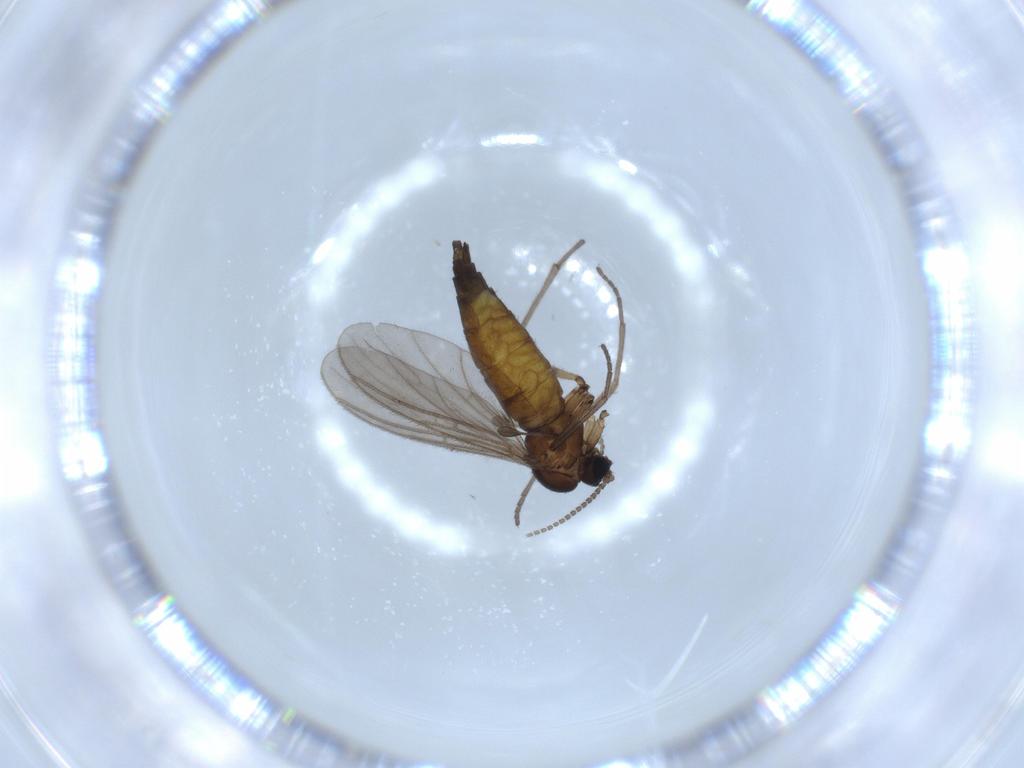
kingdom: Animalia
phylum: Arthropoda
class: Insecta
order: Diptera
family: Sciaridae
